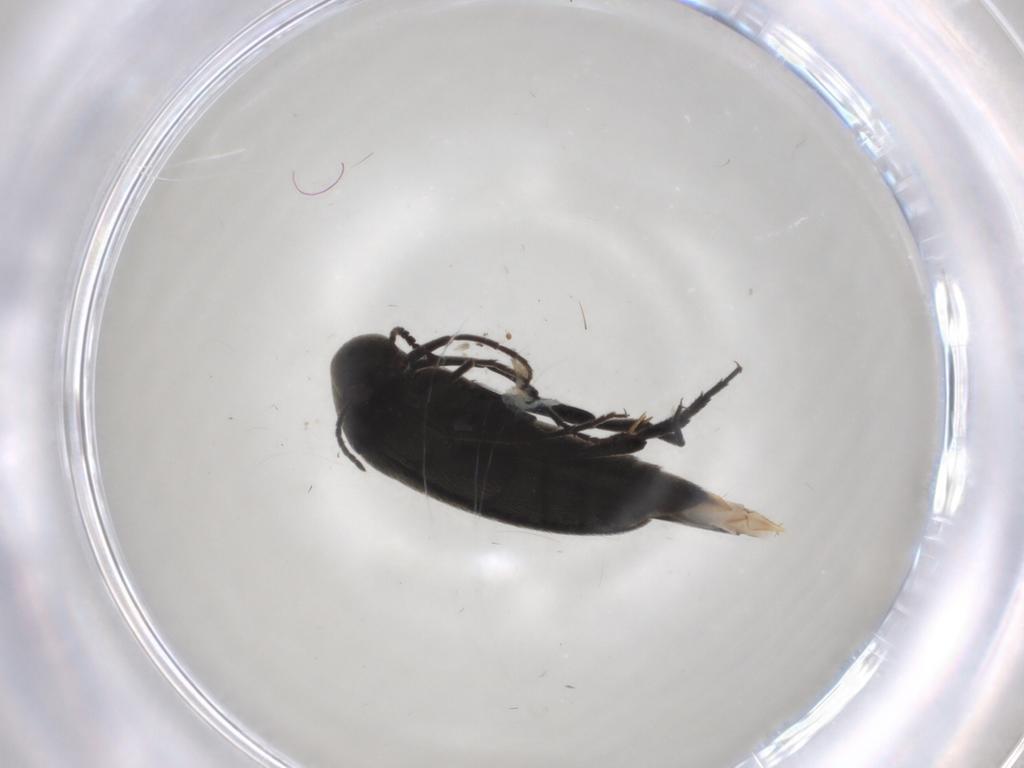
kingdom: Animalia
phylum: Arthropoda
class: Insecta
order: Coleoptera
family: Mordellidae
